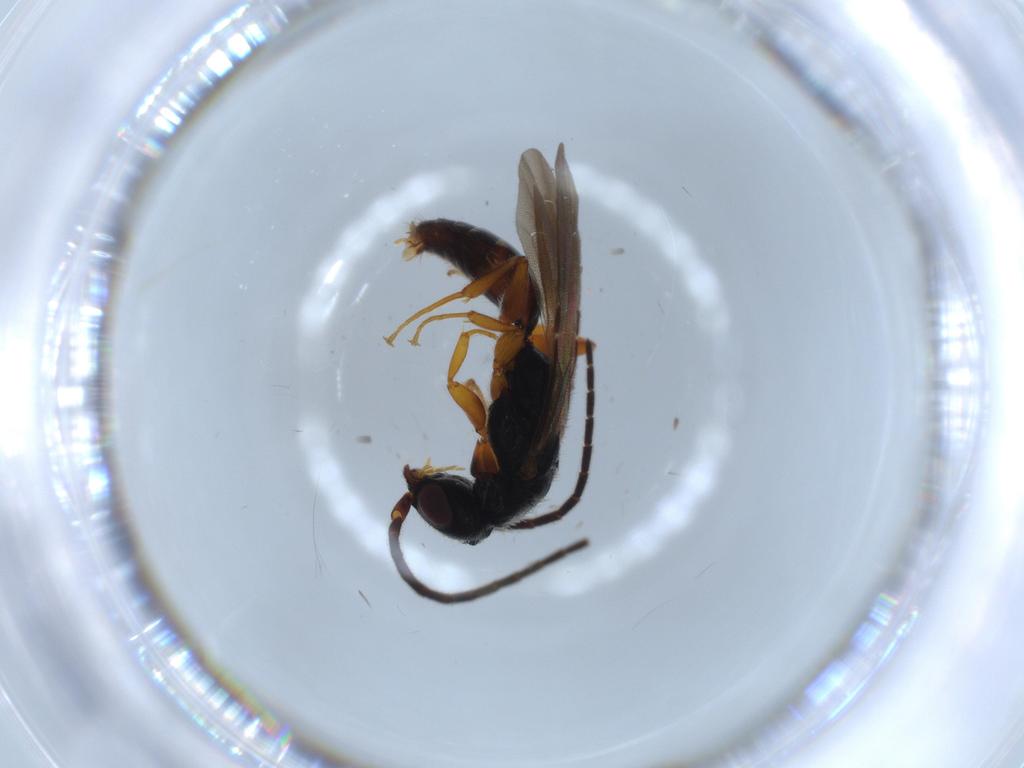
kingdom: Animalia
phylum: Arthropoda
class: Insecta
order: Hymenoptera
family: Bethylidae
